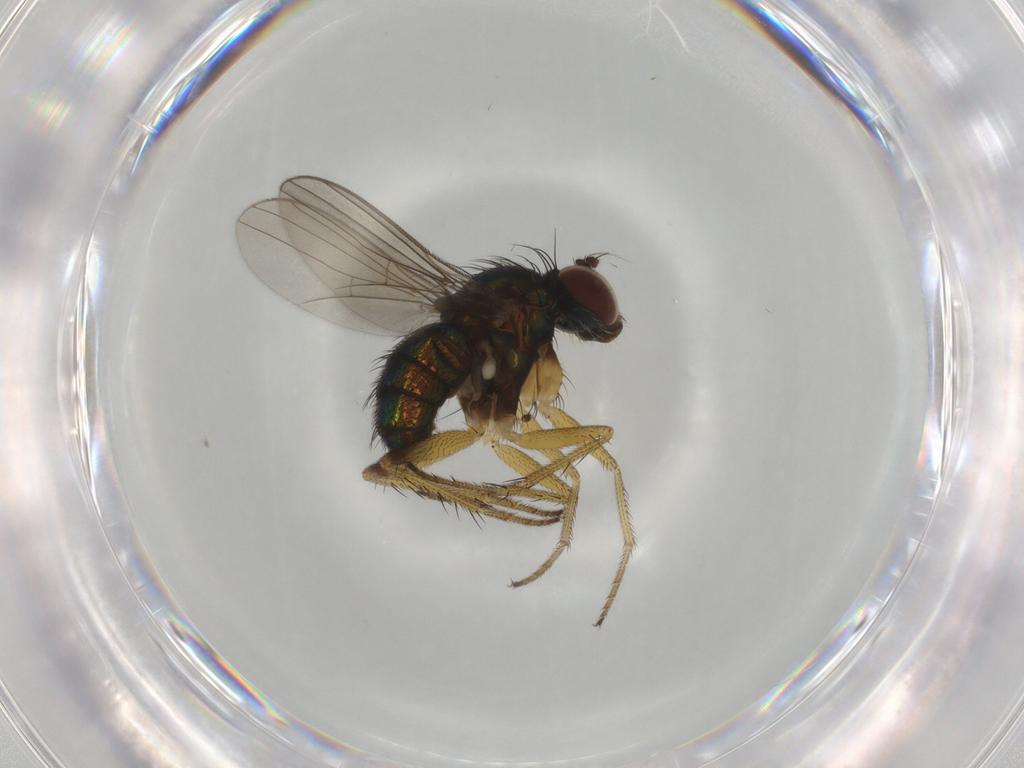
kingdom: Animalia
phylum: Arthropoda
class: Insecta
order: Diptera
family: Dolichopodidae
